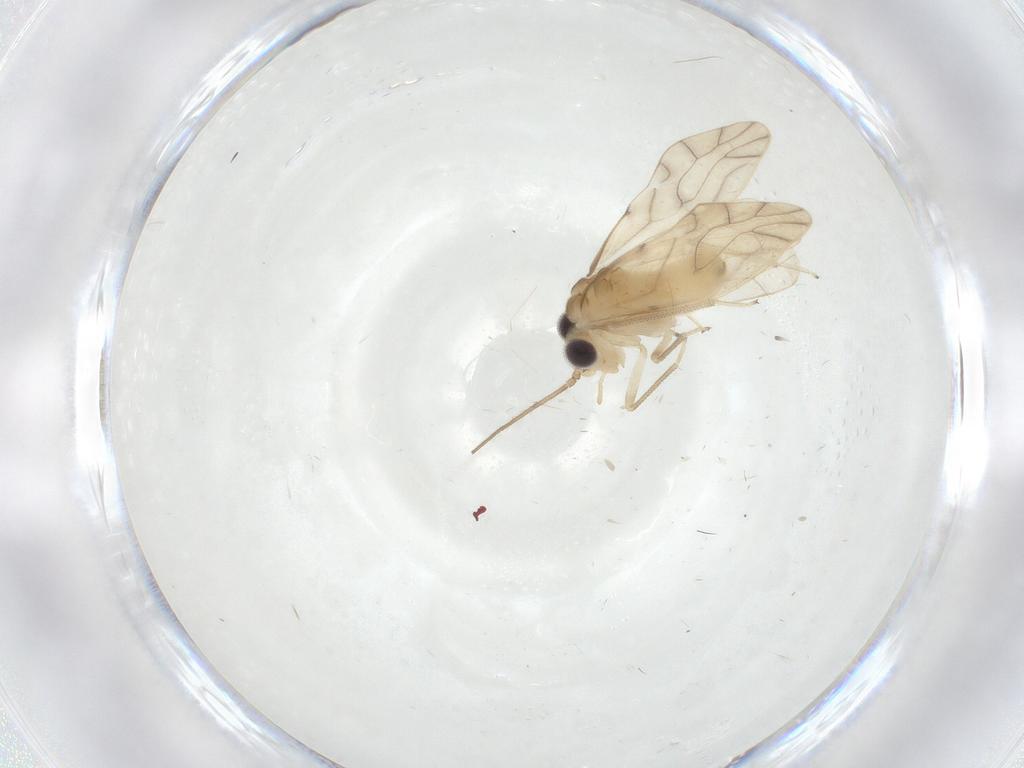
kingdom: Animalia
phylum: Arthropoda
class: Insecta
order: Psocodea
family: Caeciliusidae
